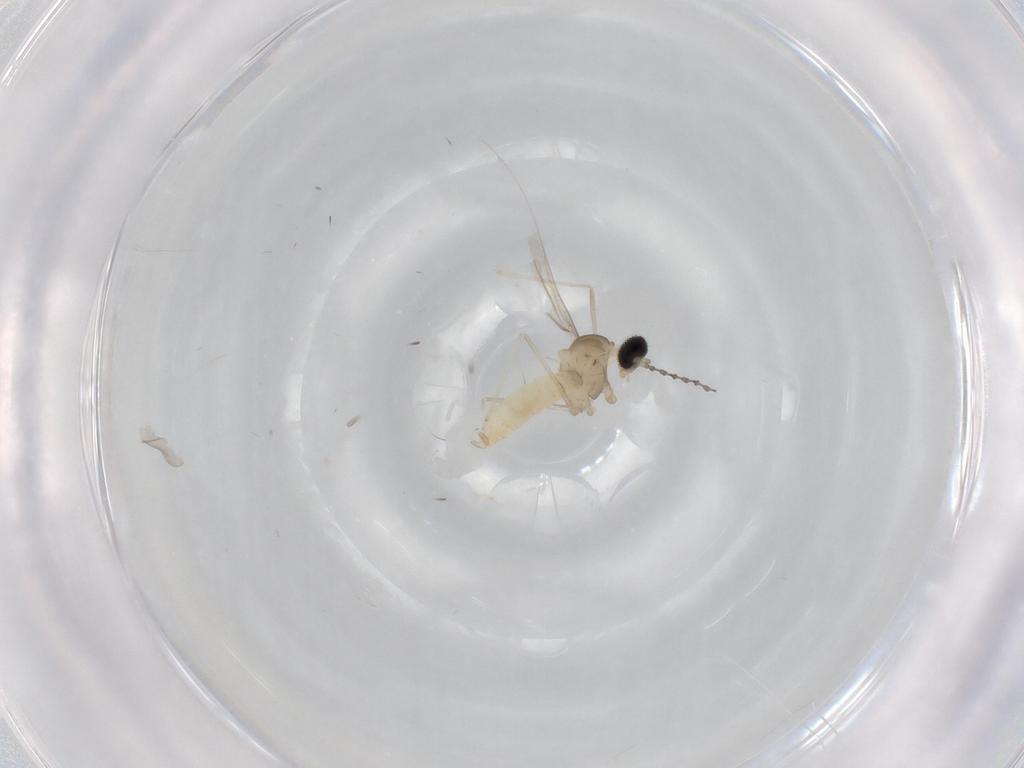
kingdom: Animalia
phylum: Arthropoda
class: Insecta
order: Diptera
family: Cecidomyiidae
